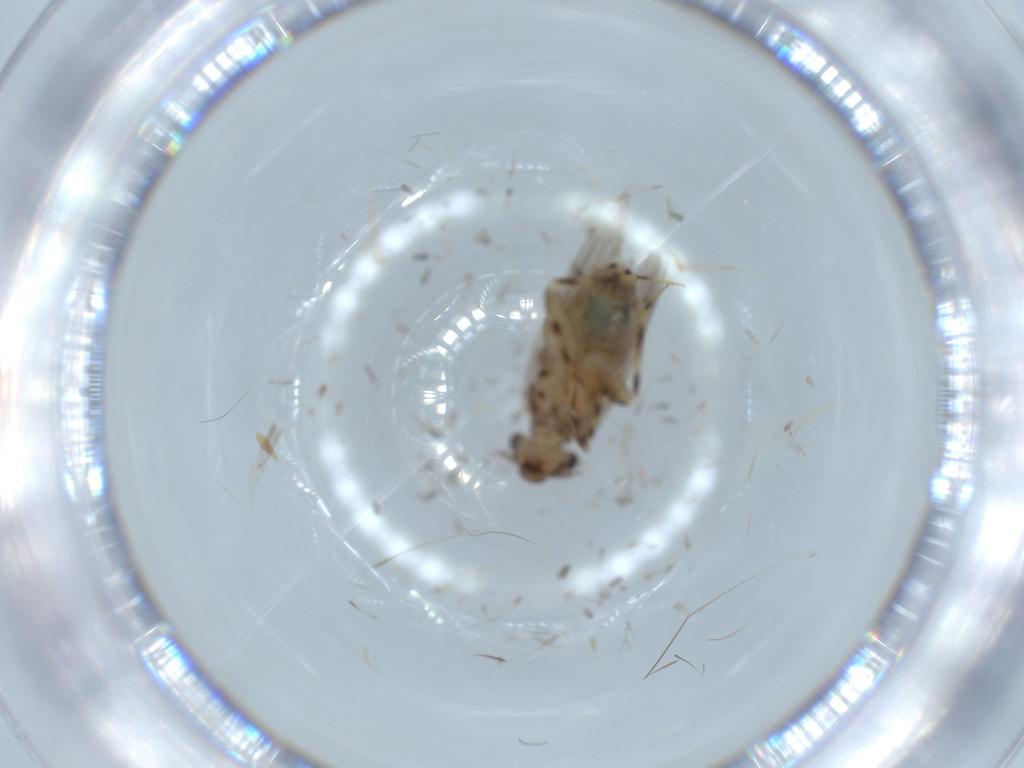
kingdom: Animalia
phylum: Arthropoda
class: Insecta
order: Psocodea
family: Lepidopsocidae
